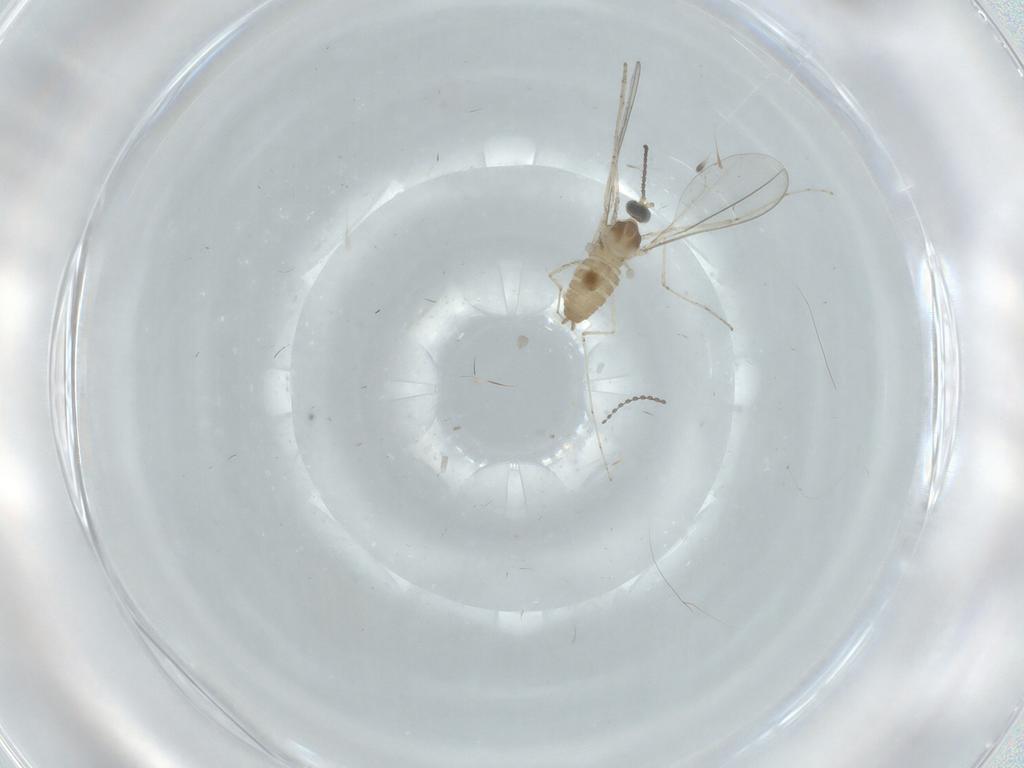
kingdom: Animalia
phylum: Arthropoda
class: Insecta
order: Diptera
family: Cecidomyiidae
